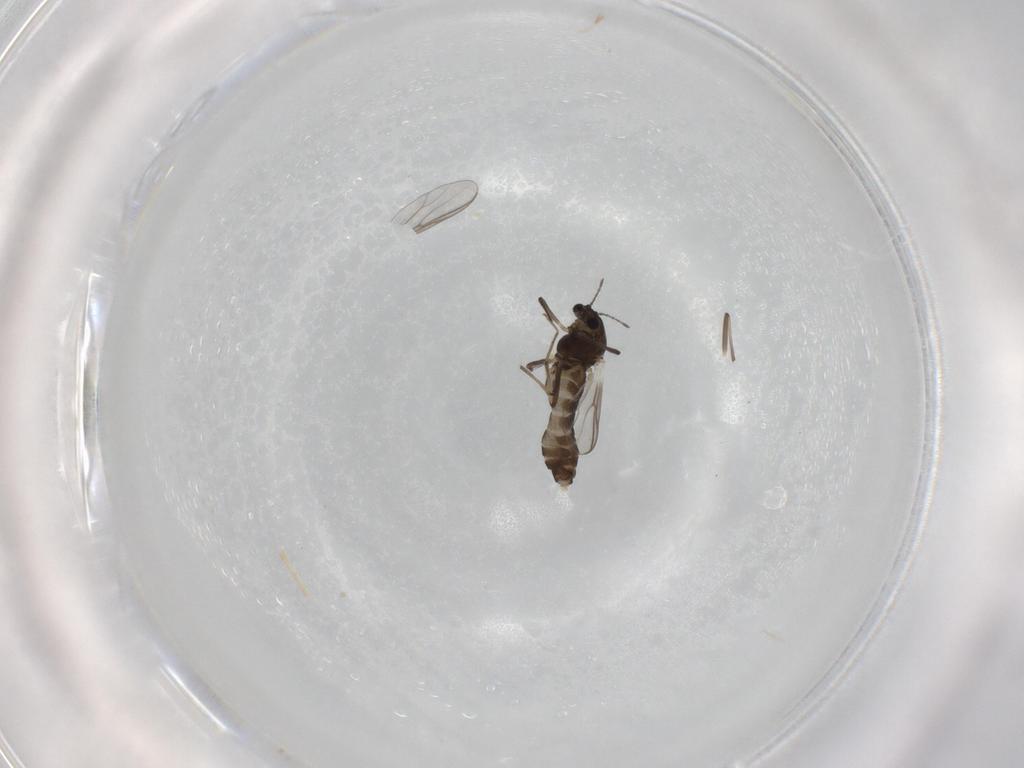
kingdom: Animalia
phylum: Arthropoda
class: Insecta
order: Diptera
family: Chironomidae
